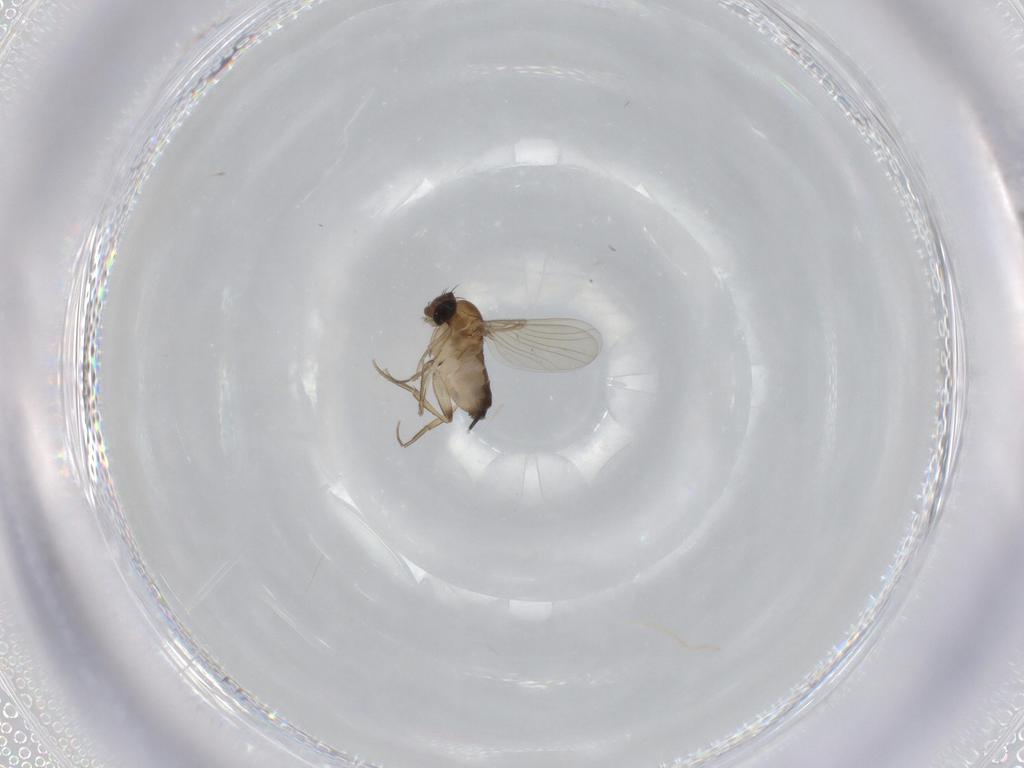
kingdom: Animalia
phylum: Arthropoda
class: Insecta
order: Diptera
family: Phoridae
